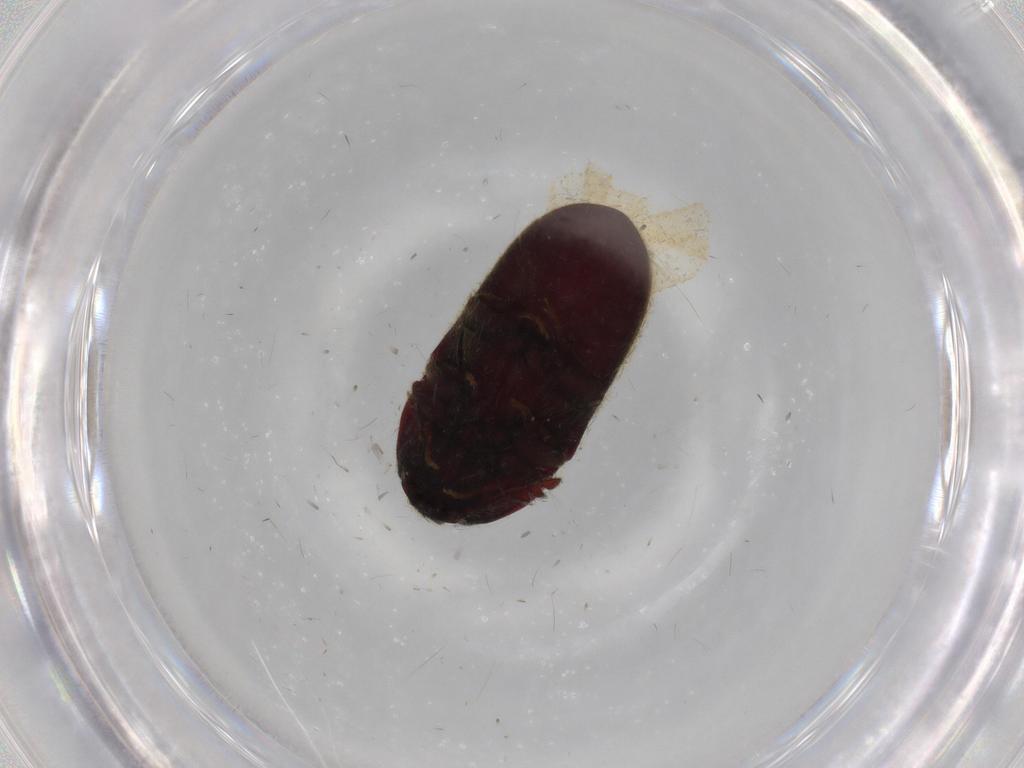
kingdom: Animalia
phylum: Arthropoda
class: Insecta
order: Coleoptera
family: Throscidae
